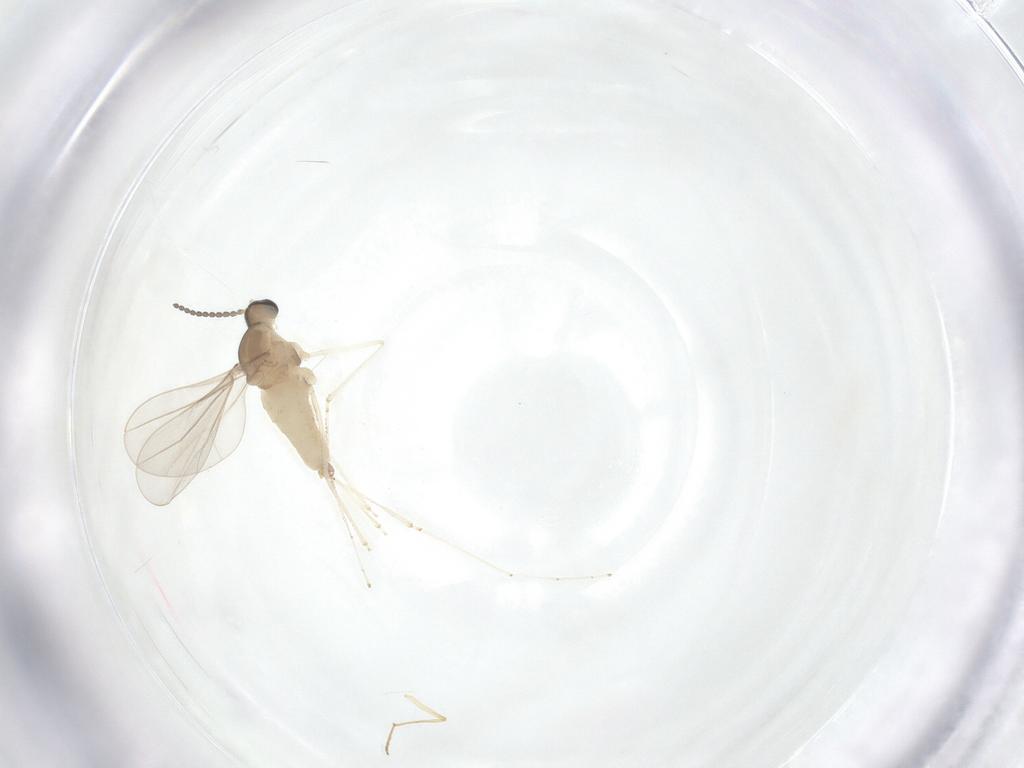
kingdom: Animalia
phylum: Arthropoda
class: Insecta
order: Diptera
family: Cecidomyiidae
